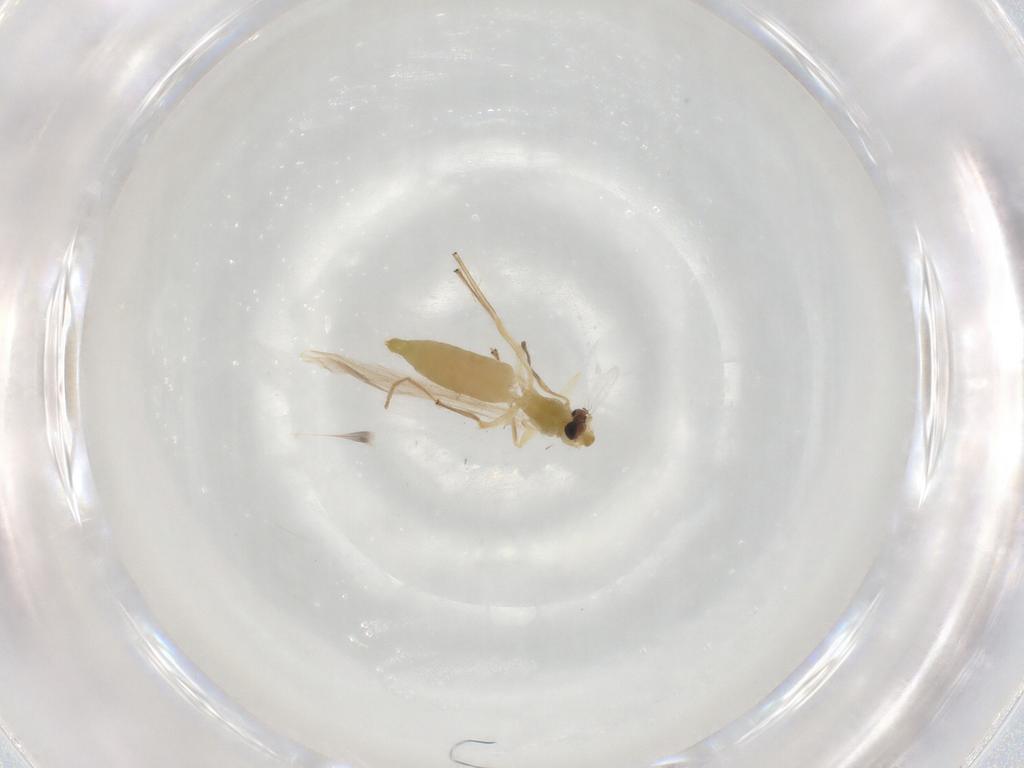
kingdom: Animalia
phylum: Arthropoda
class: Insecta
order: Diptera
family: Chironomidae
